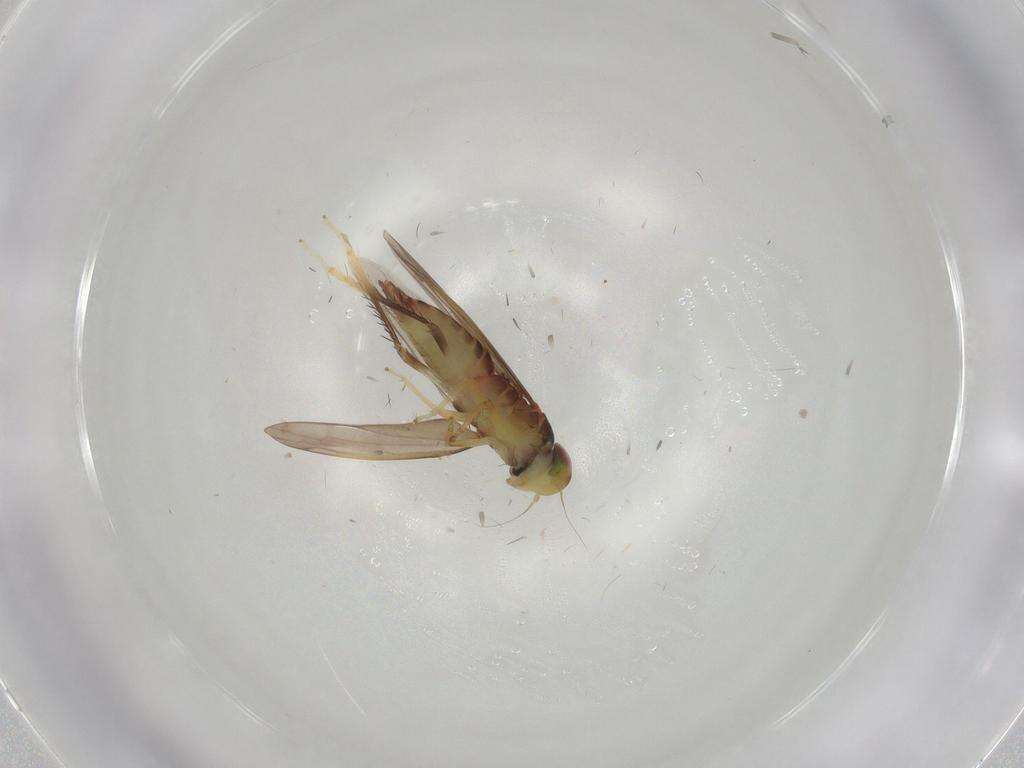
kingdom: Animalia
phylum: Arthropoda
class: Insecta
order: Hemiptera
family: Cicadellidae
